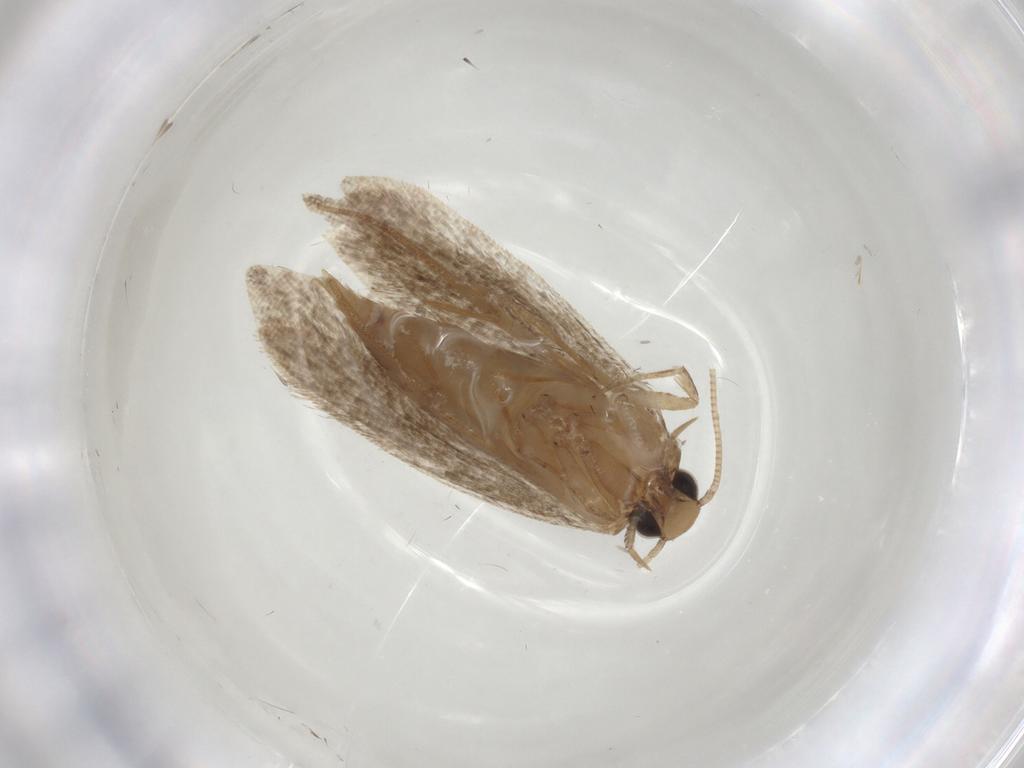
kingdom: Animalia
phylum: Arthropoda
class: Insecta
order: Lepidoptera
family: Tineidae
